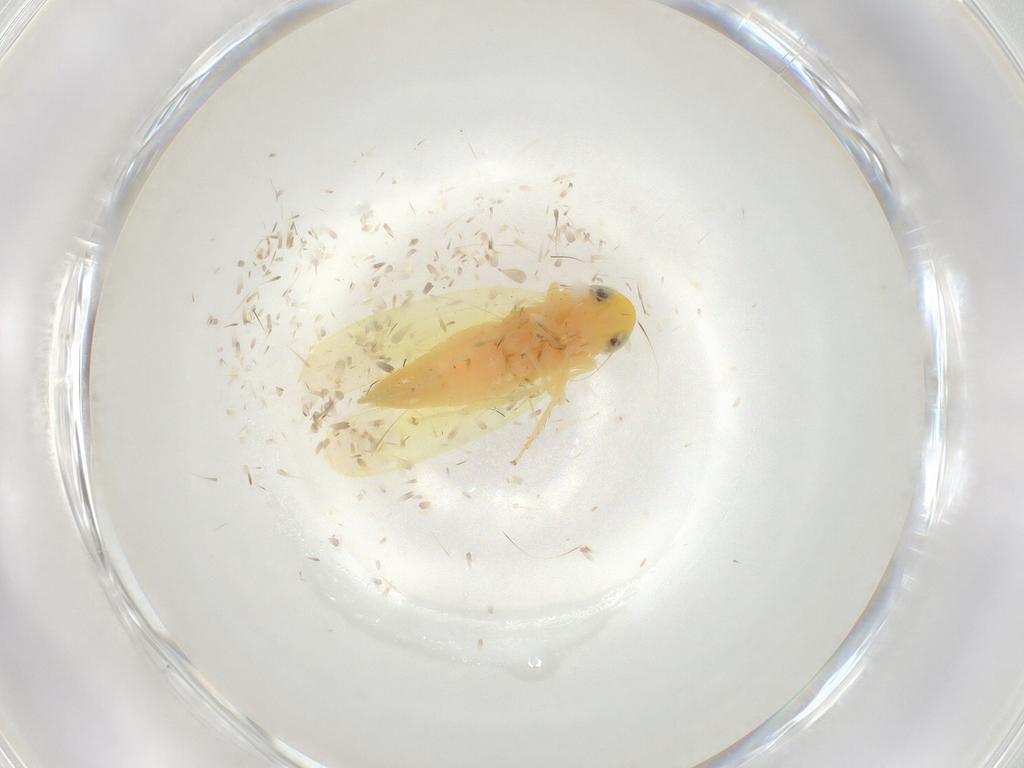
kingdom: Animalia
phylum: Arthropoda
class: Insecta
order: Hemiptera
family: Cicadellidae
